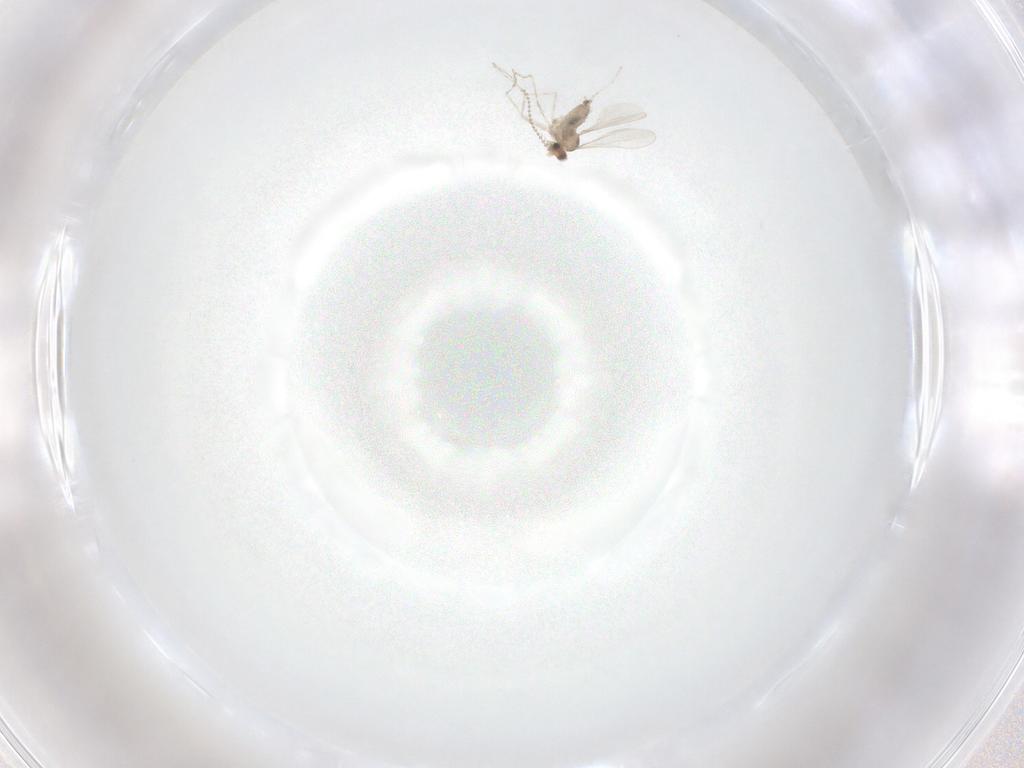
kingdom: Animalia
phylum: Arthropoda
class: Insecta
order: Diptera
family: Cecidomyiidae
